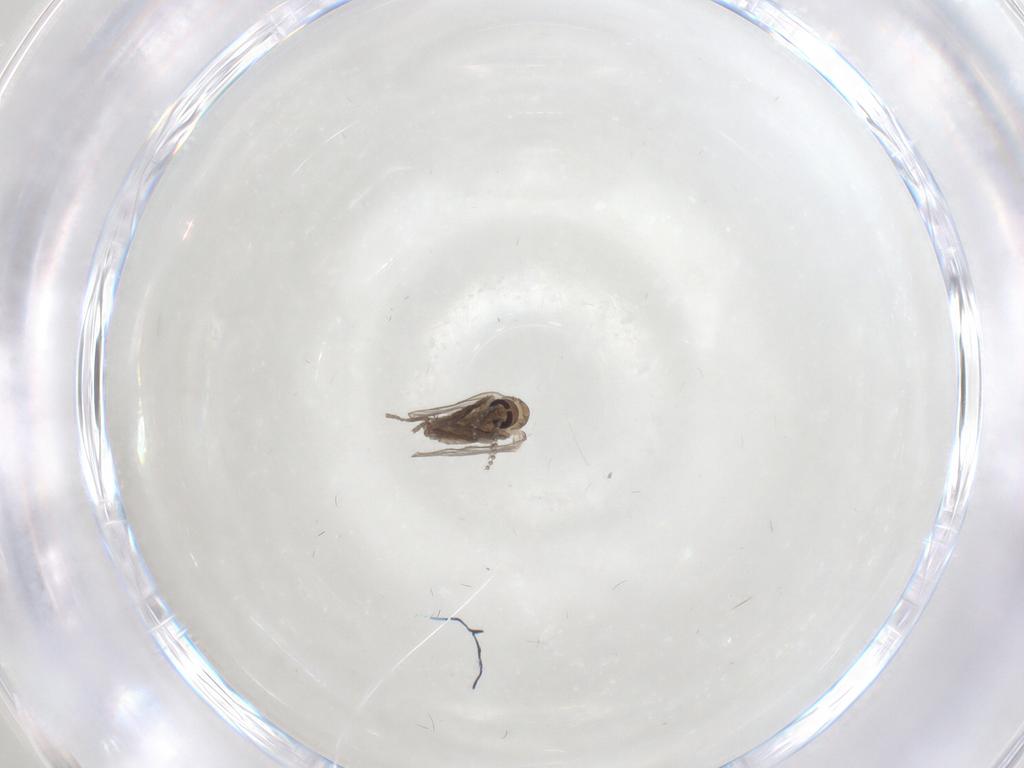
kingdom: Animalia
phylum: Arthropoda
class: Insecta
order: Diptera
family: Psychodidae
